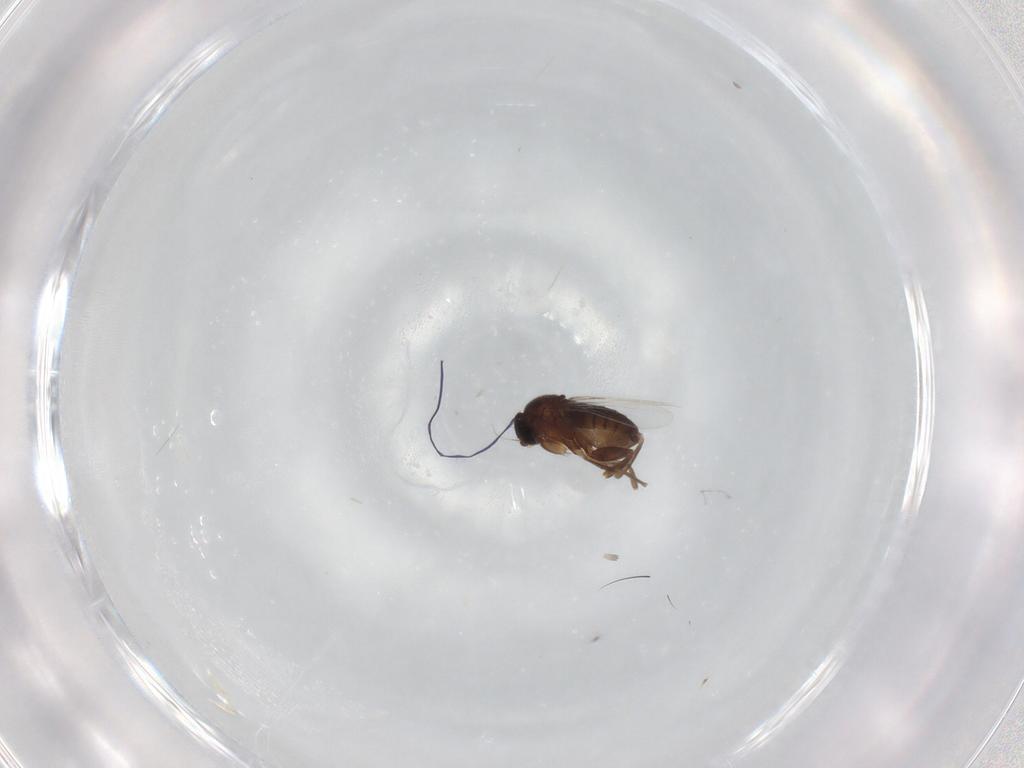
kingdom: Animalia
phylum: Arthropoda
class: Insecta
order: Diptera
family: Phoridae
